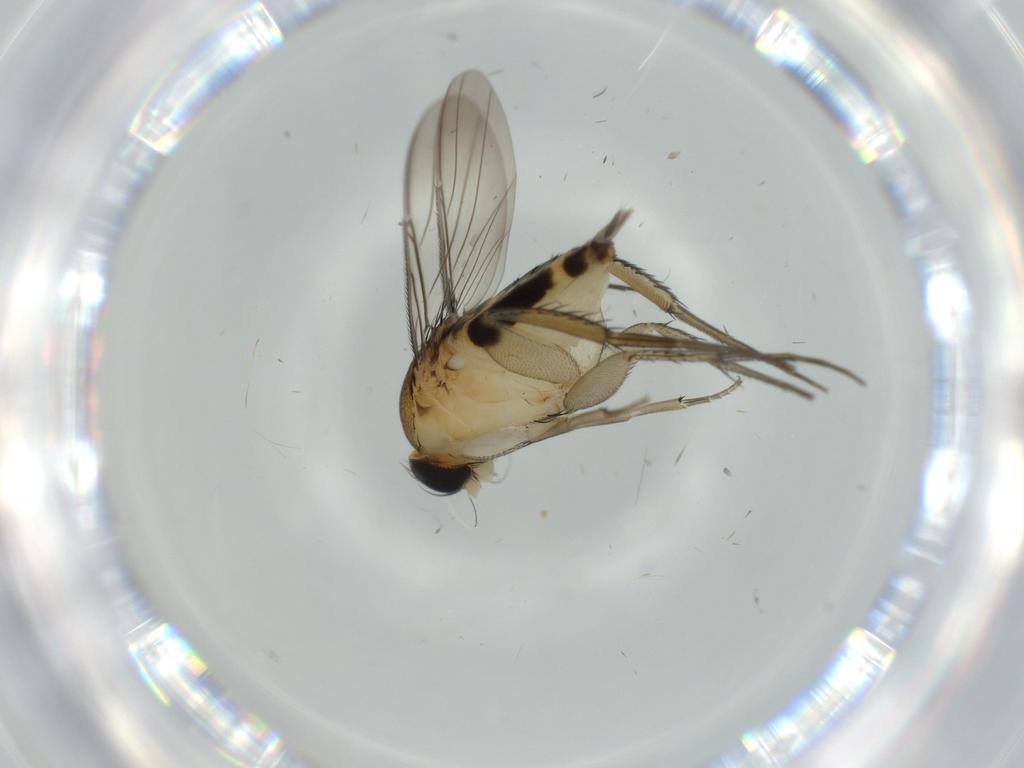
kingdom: Animalia
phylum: Arthropoda
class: Insecta
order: Diptera
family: Phoridae
